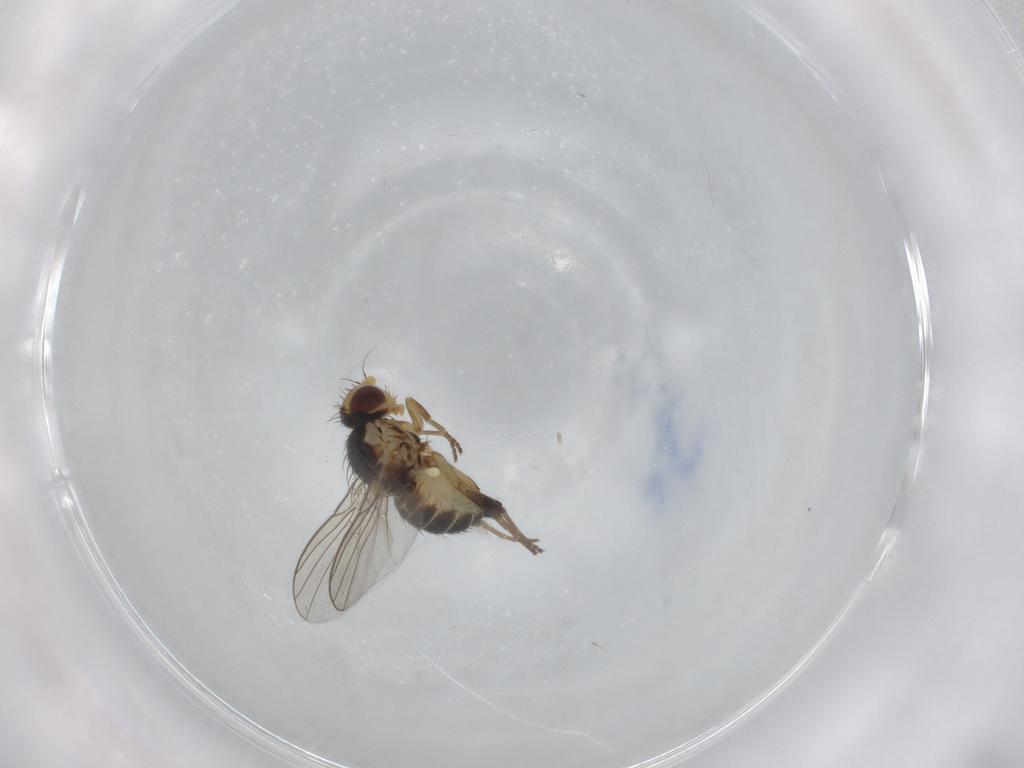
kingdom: Animalia
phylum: Arthropoda
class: Insecta
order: Diptera
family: Agromyzidae
